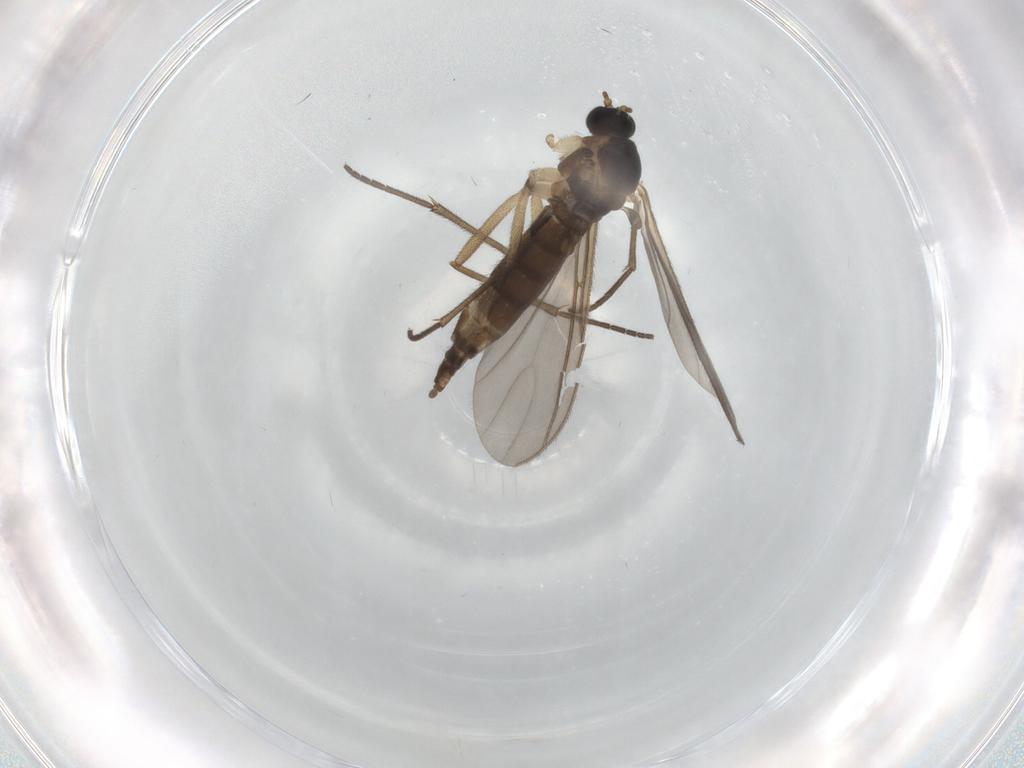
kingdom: Animalia
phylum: Arthropoda
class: Insecta
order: Diptera
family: Sciaridae
